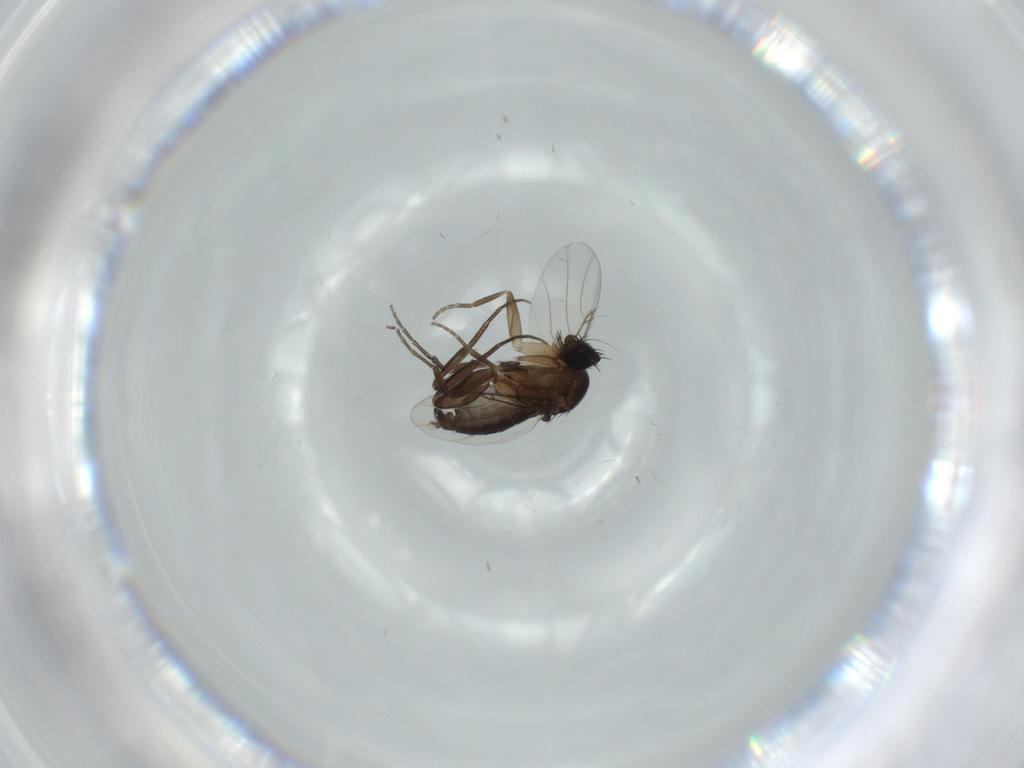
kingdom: Animalia
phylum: Arthropoda
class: Insecta
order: Diptera
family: Phoridae
